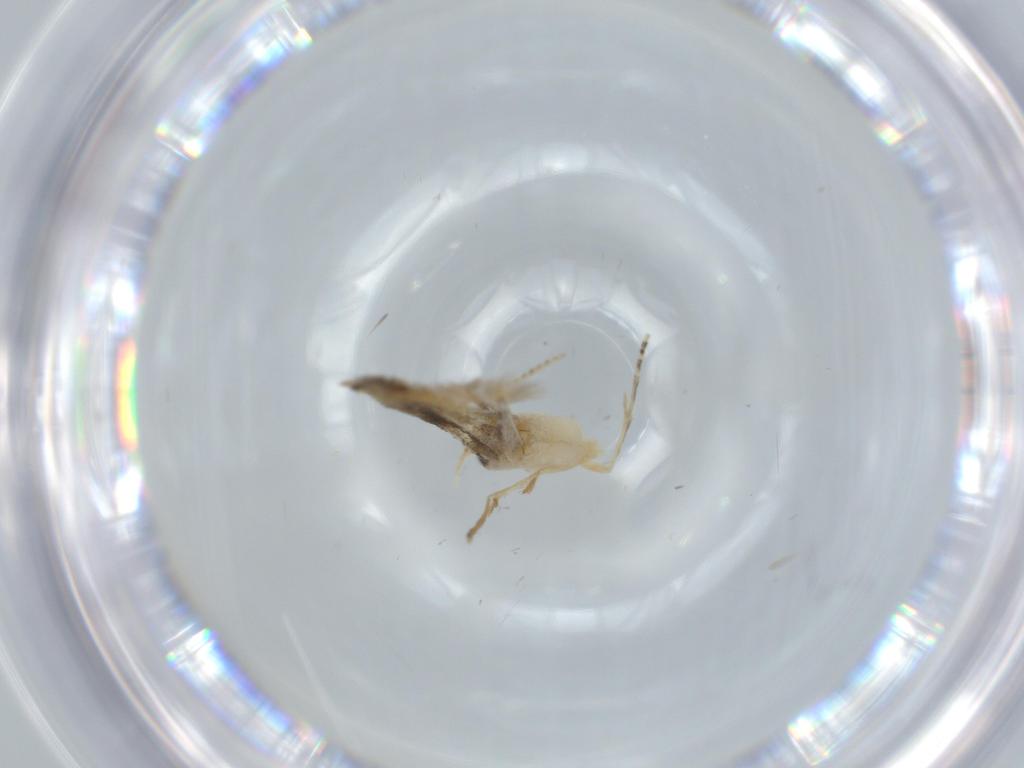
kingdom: Animalia
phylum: Arthropoda
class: Insecta
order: Lepidoptera
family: Bucculatricidae
